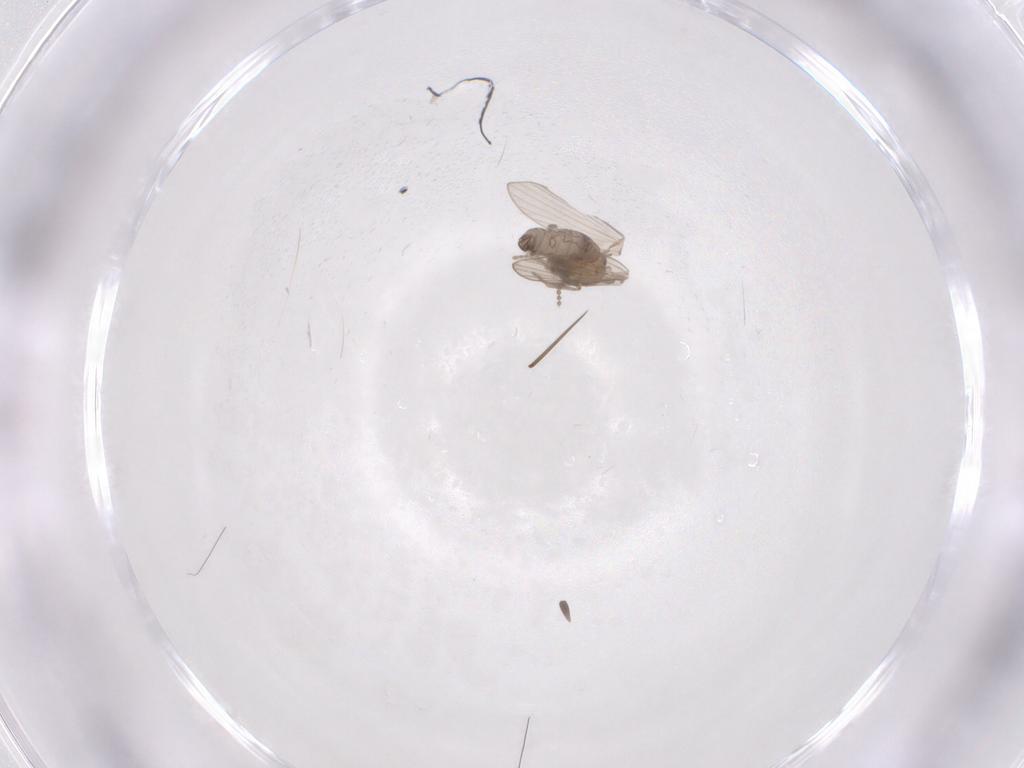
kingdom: Animalia
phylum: Arthropoda
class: Insecta
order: Diptera
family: Psychodidae
